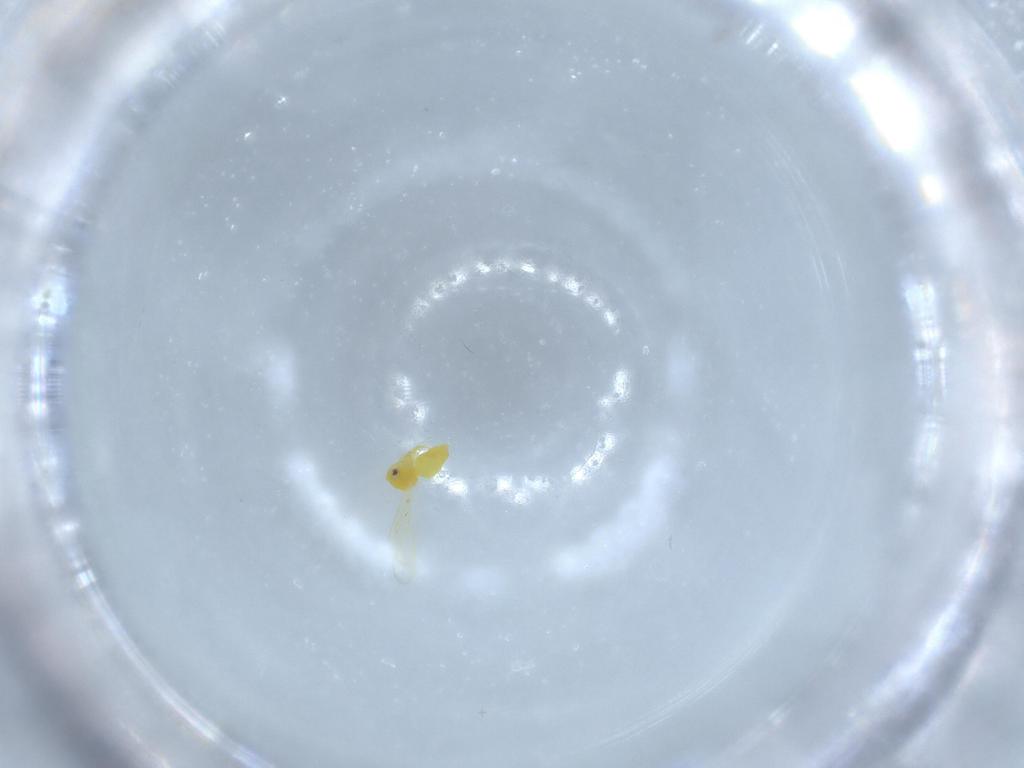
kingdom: Animalia
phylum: Arthropoda
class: Insecta
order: Hemiptera
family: Aleyrodidae
